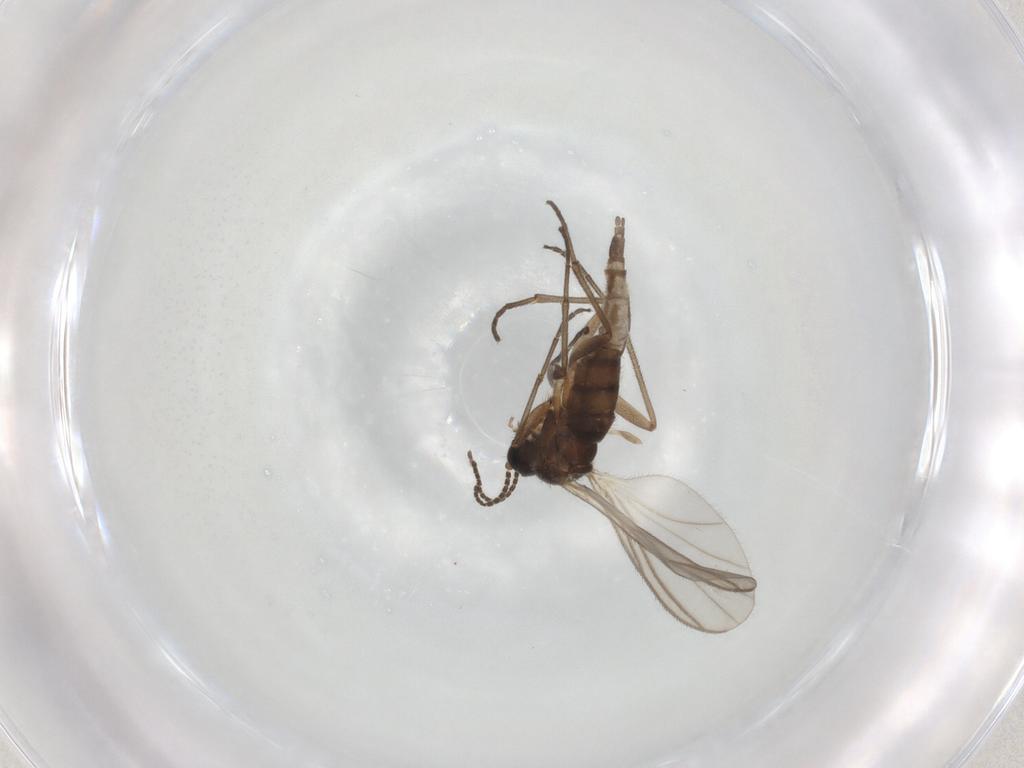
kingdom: Animalia
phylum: Arthropoda
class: Insecta
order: Diptera
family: Sciaridae
